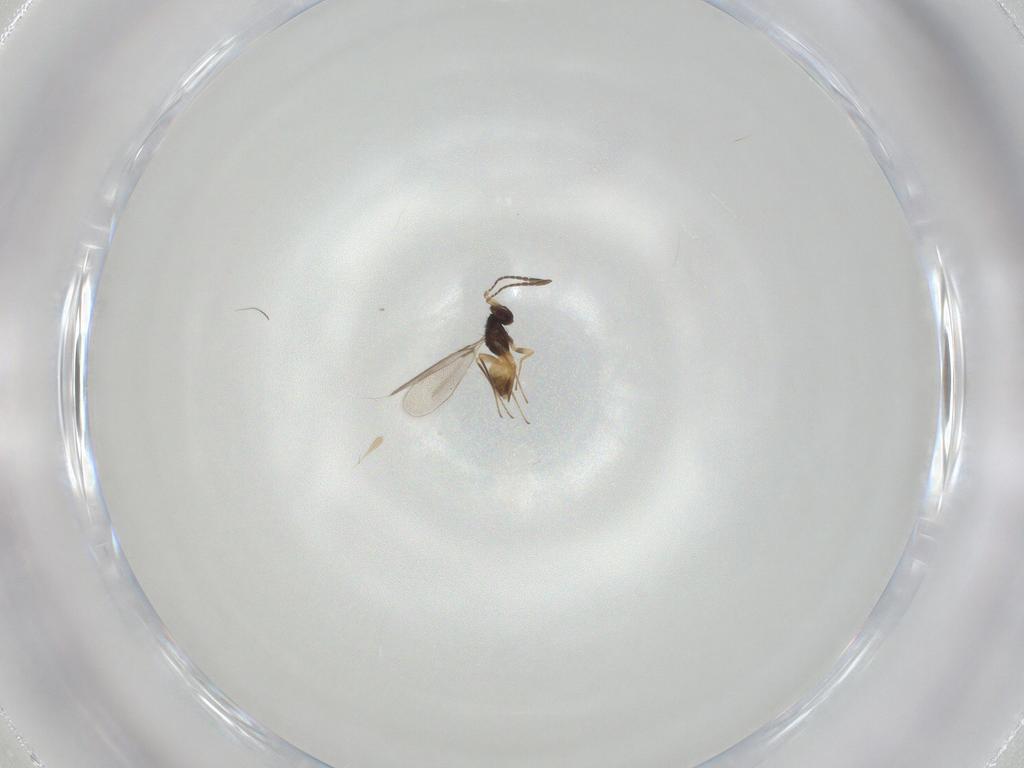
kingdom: Animalia
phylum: Arthropoda
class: Insecta
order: Hymenoptera
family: Mymaridae
